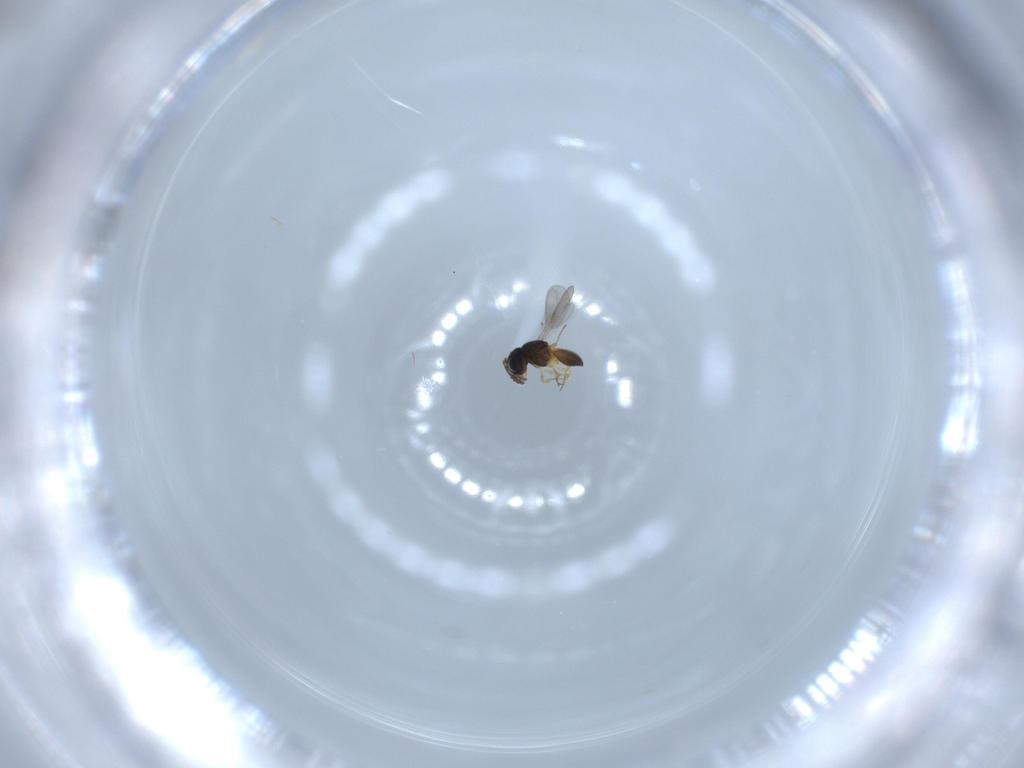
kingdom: Animalia
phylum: Arthropoda
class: Insecta
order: Hymenoptera
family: Scelionidae
